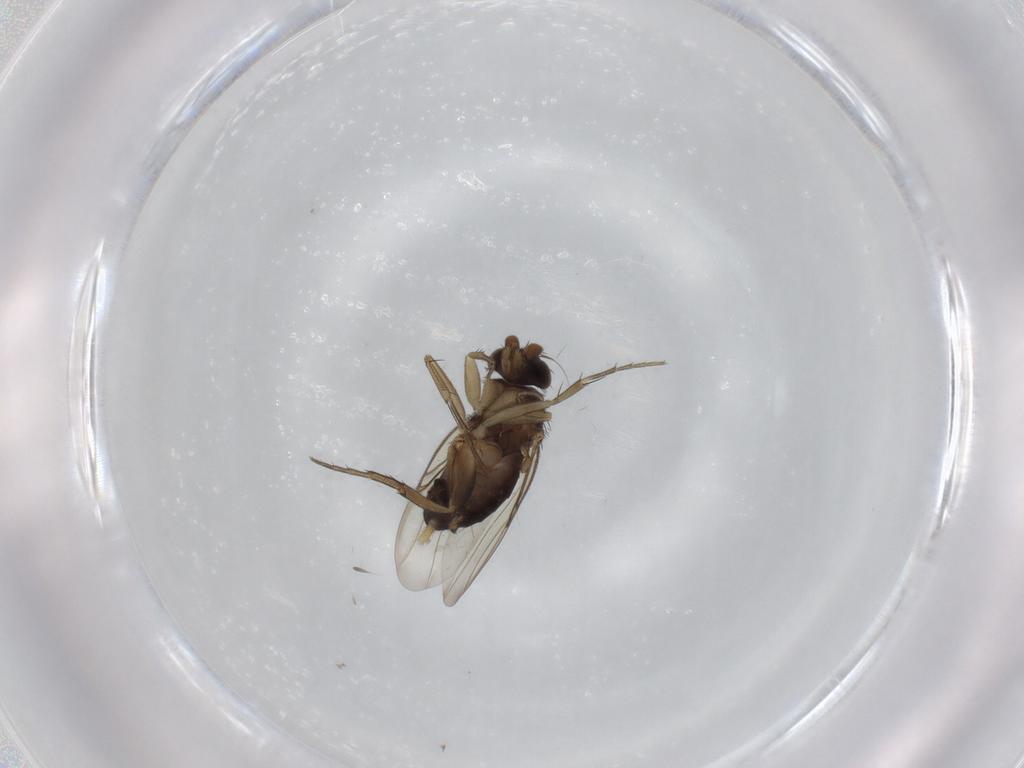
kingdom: Animalia
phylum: Arthropoda
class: Insecta
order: Diptera
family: Phoridae
